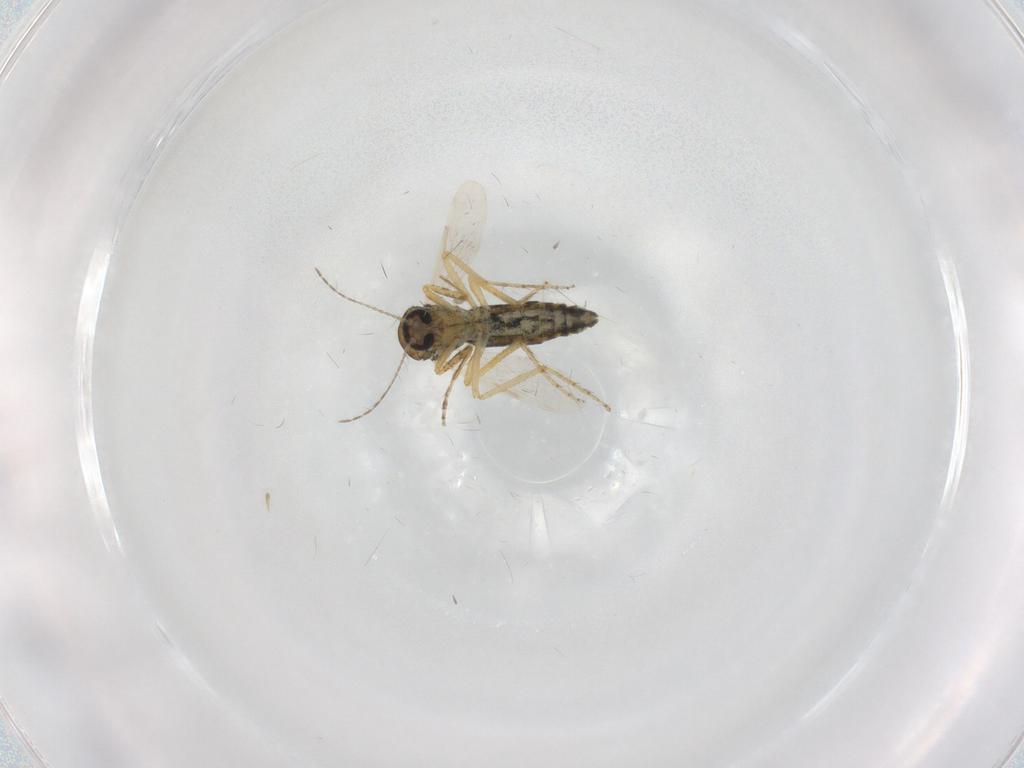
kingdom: Animalia
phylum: Arthropoda
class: Insecta
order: Diptera
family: Ceratopogonidae
